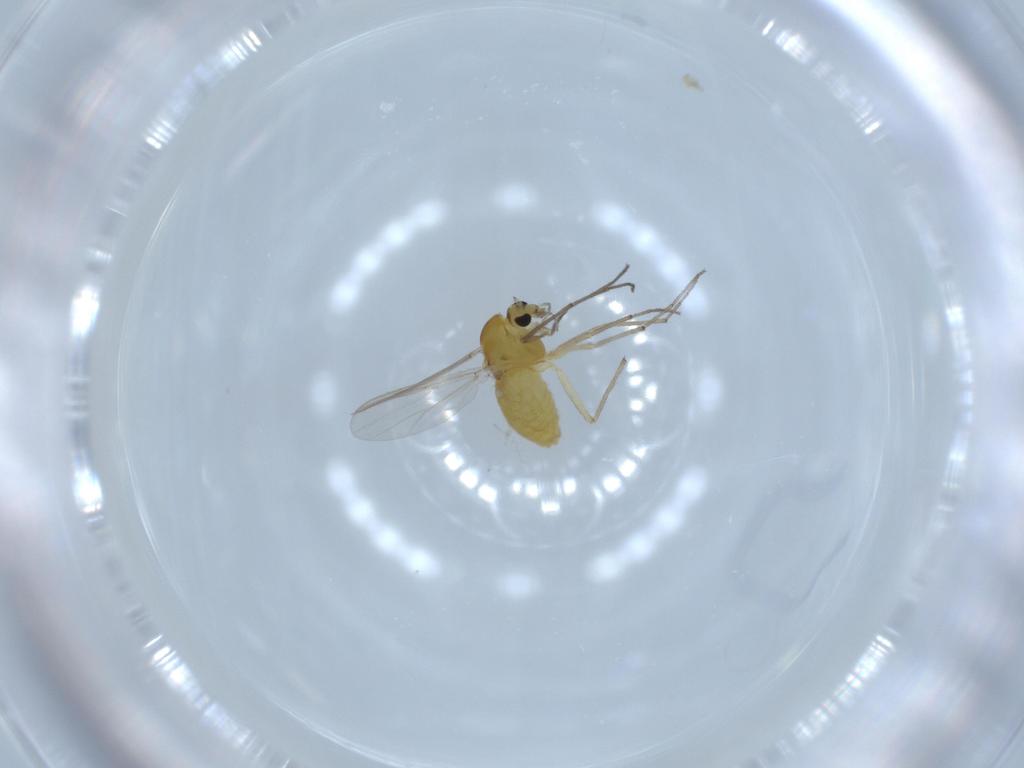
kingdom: Animalia
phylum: Arthropoda
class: Insecta
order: Diptera
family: Chironomidae
